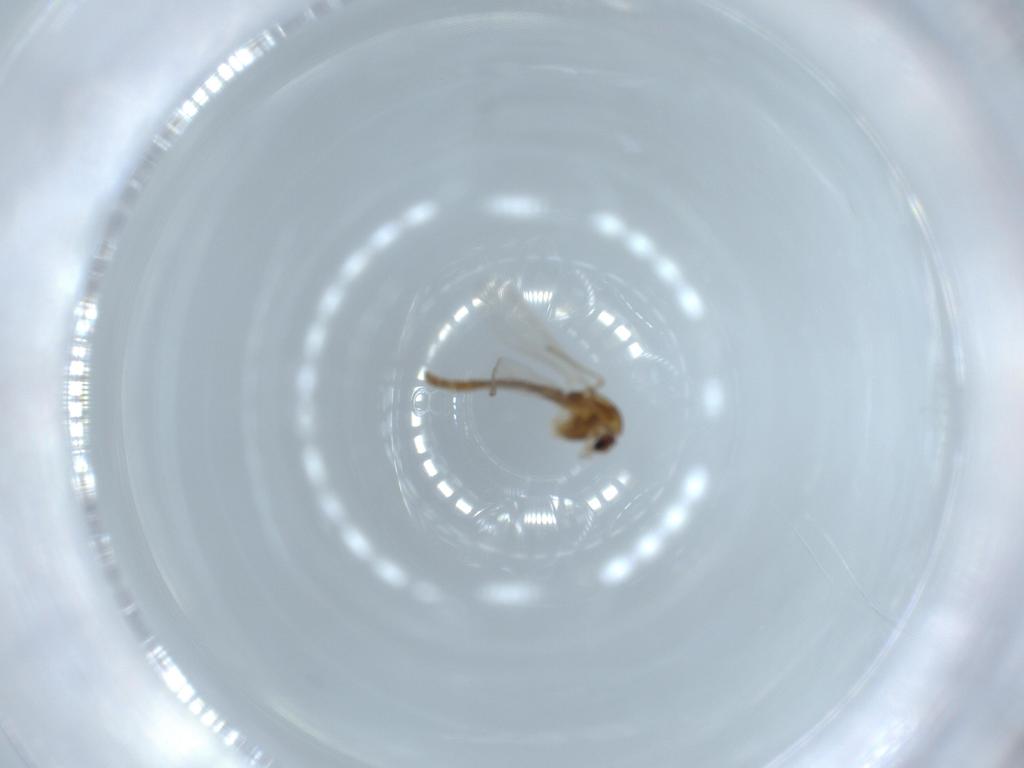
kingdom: Animalia
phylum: Arthropoda
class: Insecta
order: Diptera
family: Chironomidae
